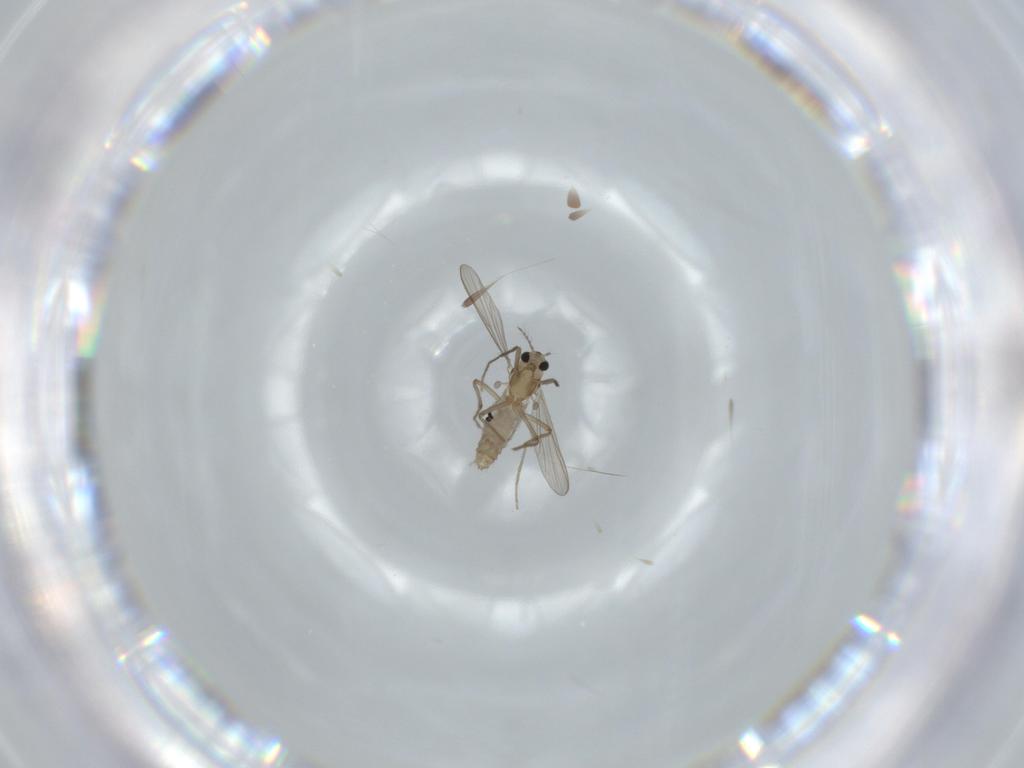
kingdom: Animalia
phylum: Arthropoda
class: Insecta
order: Diptera
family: Chironomidae
